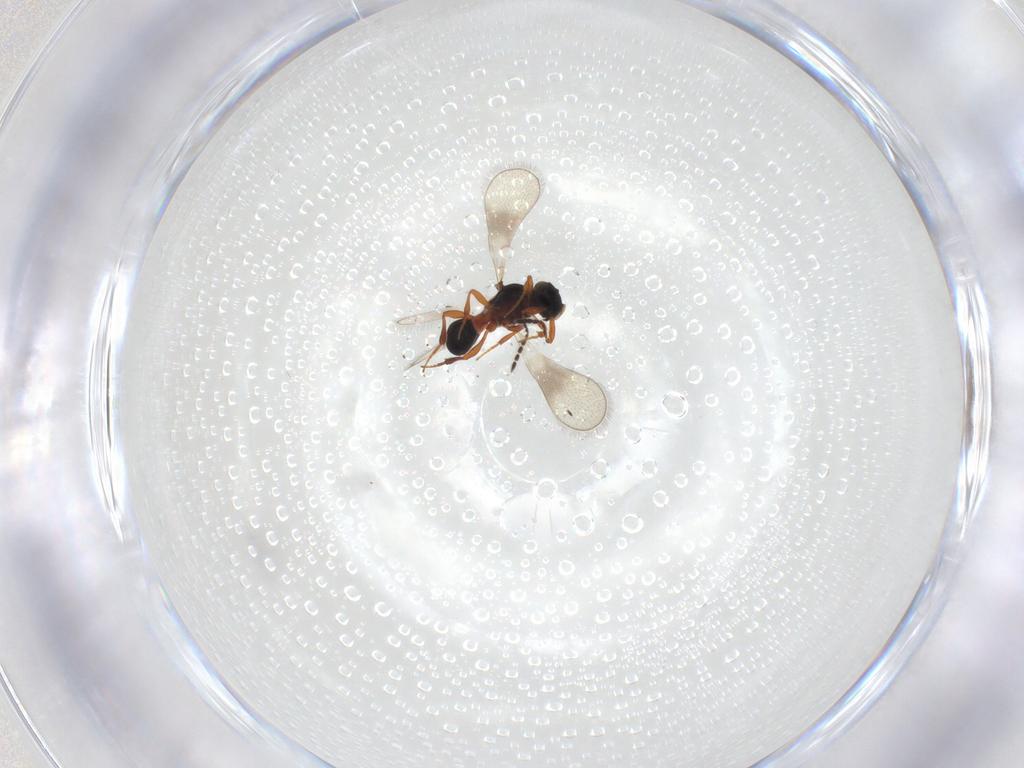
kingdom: Animalia
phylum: Arthropoda
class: Insecta
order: Hymenoptera
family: Platygastridae
